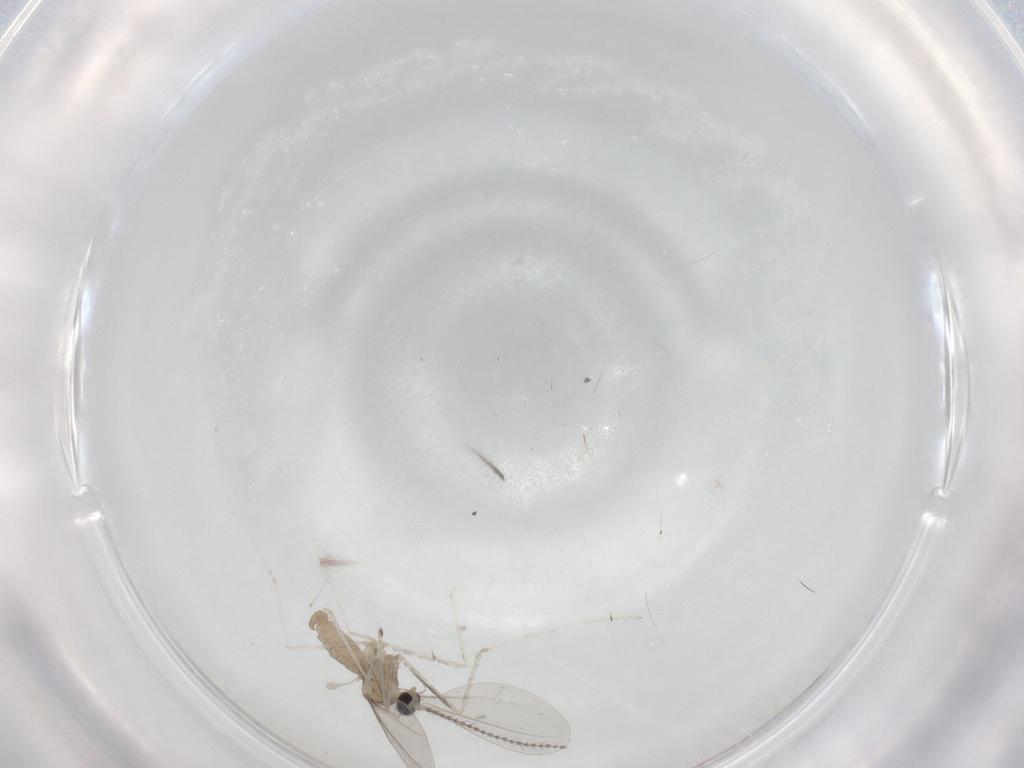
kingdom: Animalia
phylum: Arthropoda
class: Insecta
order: Diptera
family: Cecidomyiidae
